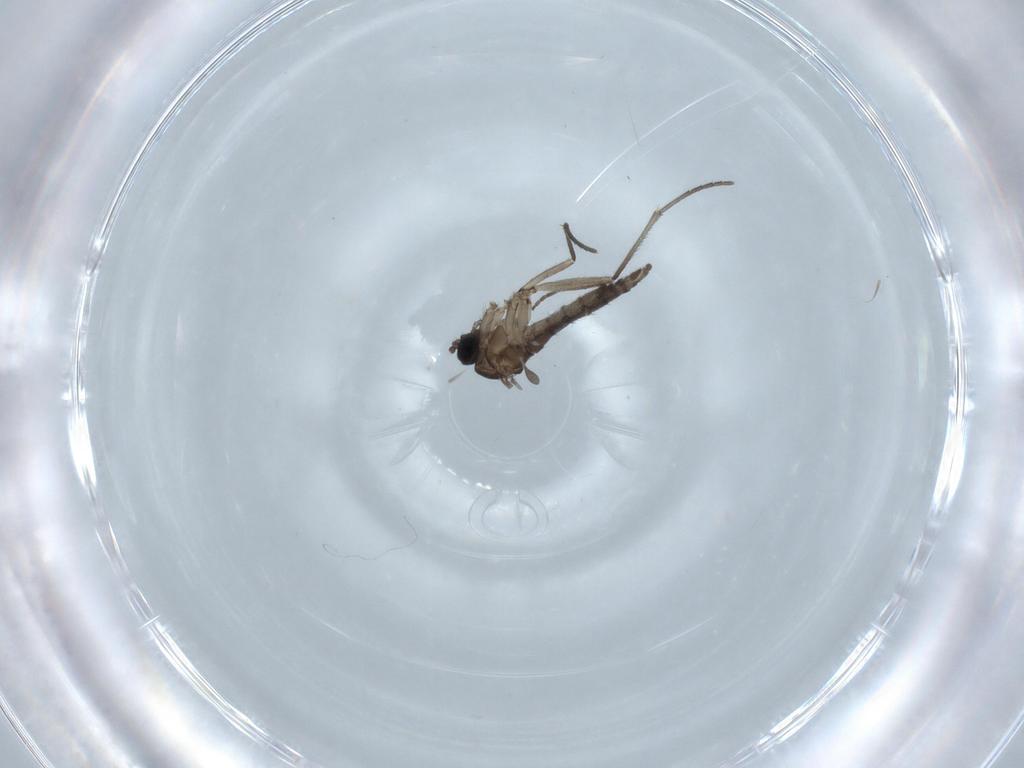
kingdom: Animalia
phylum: Arthropoda
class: Insecta
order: Diptera
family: Sciaridae
